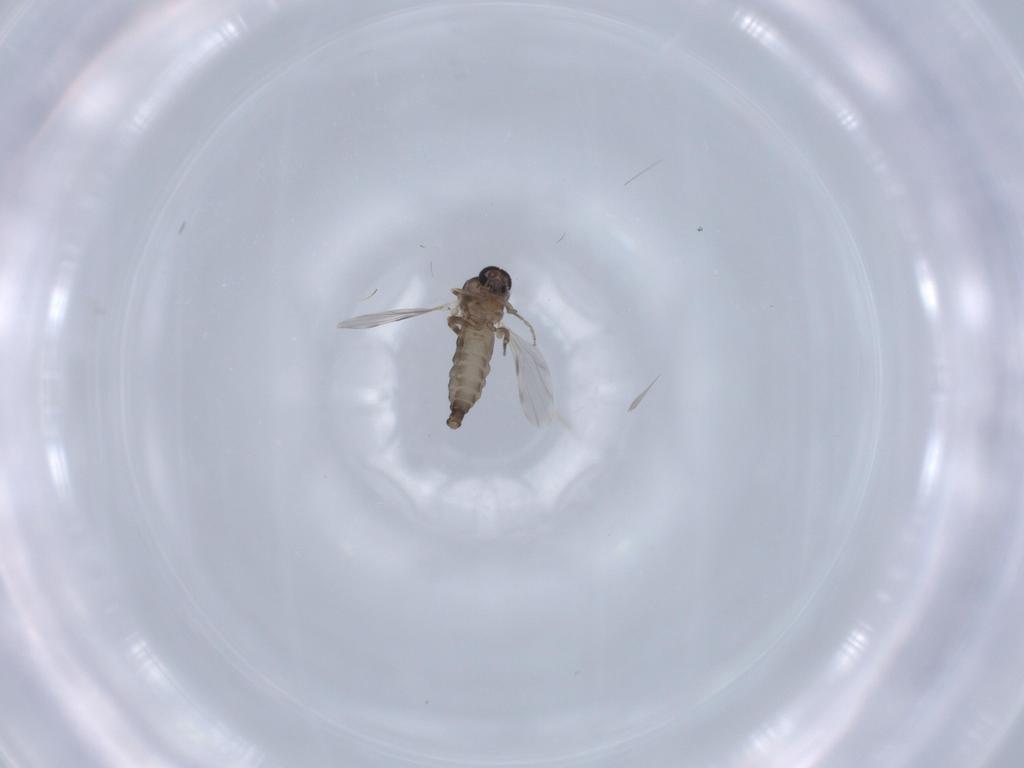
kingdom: Animalia
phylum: Arthropoda
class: Insecta
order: Diptera
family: Ceratopogonidae
